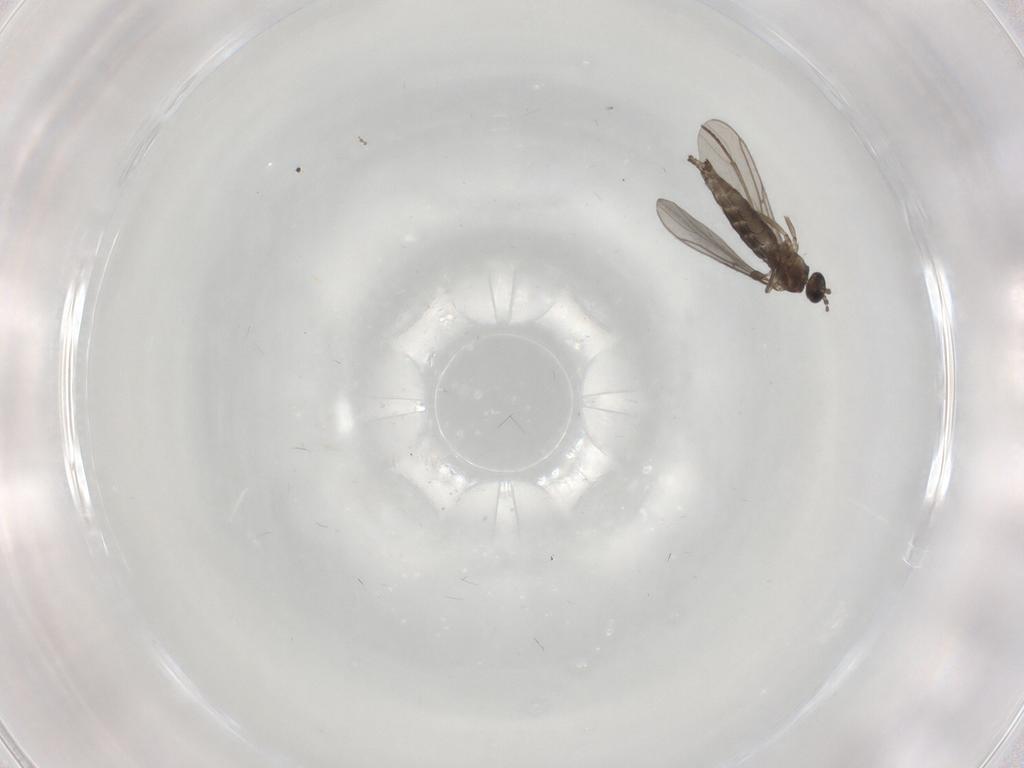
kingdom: Animalia
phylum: Arthropoda
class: Insecta
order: Diptera
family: Sciaridae
